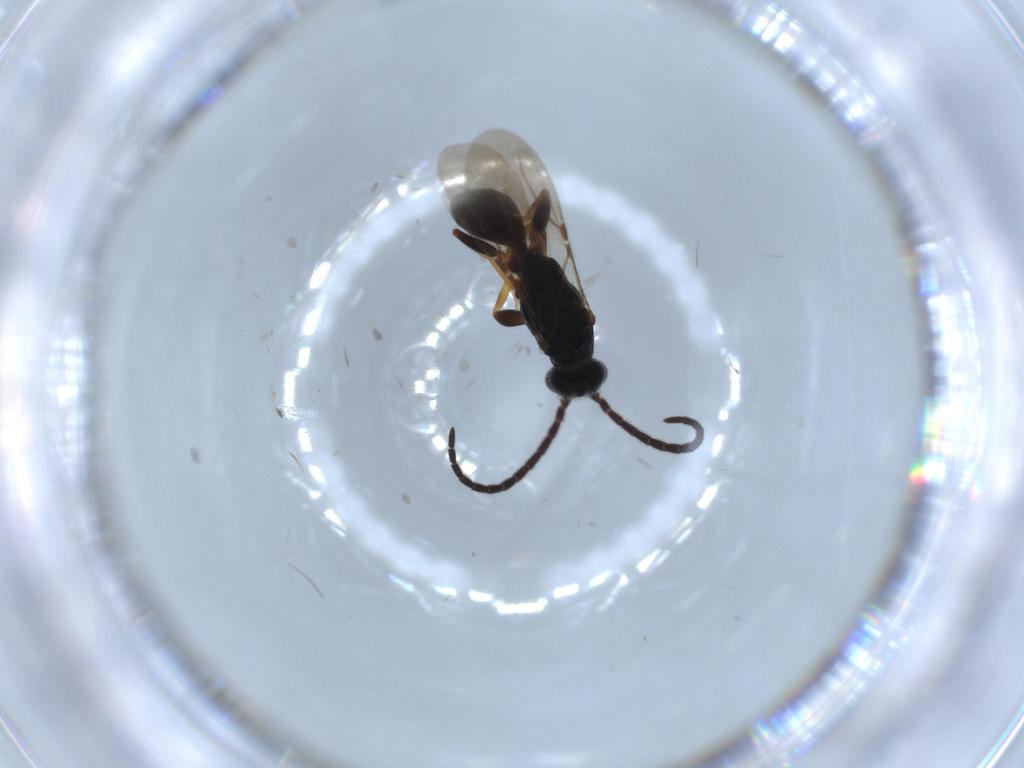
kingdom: Animalia
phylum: Arthropoda
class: Insecta
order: Hymenoptera
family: Bethylidae
